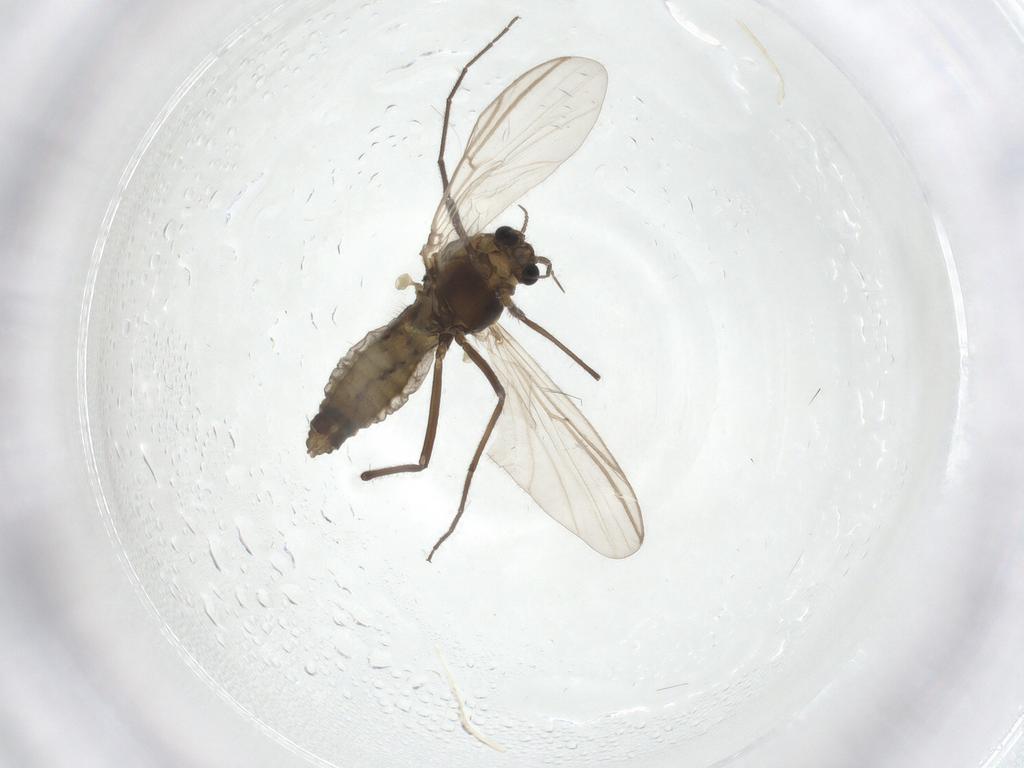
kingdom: Animalia
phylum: Arthropoda
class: Insecta
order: Diptera
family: Chironomidae
